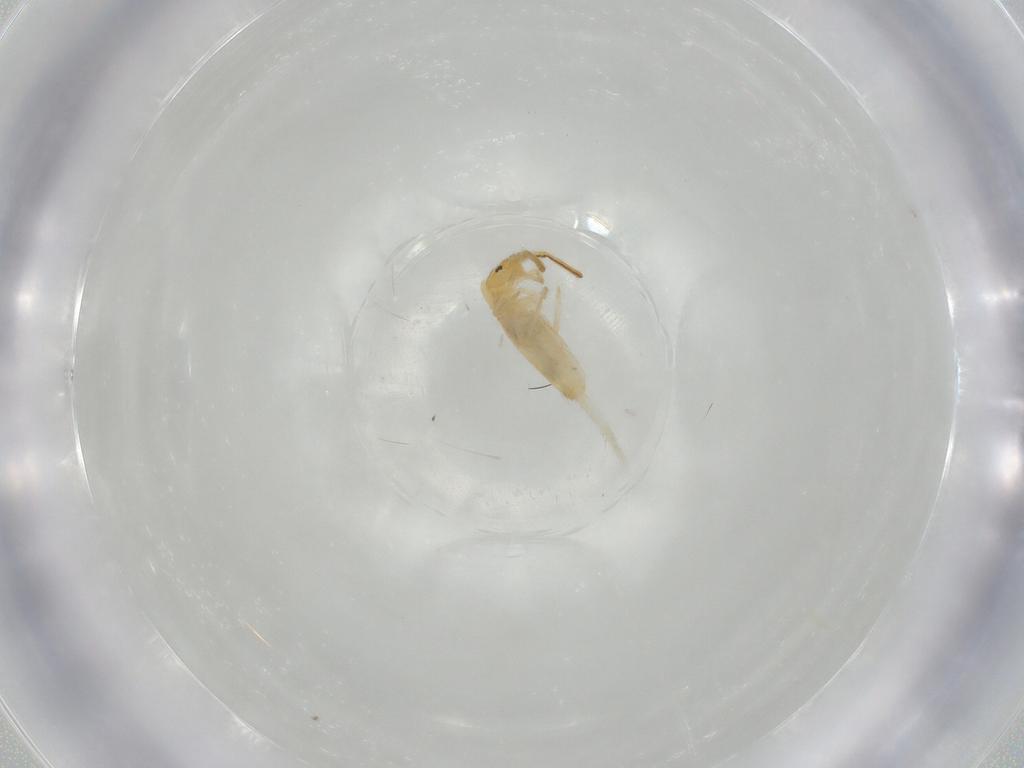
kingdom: Animalia
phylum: Arthropoda
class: Collembola
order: Entomobryomorpha
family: Entomobryidae
